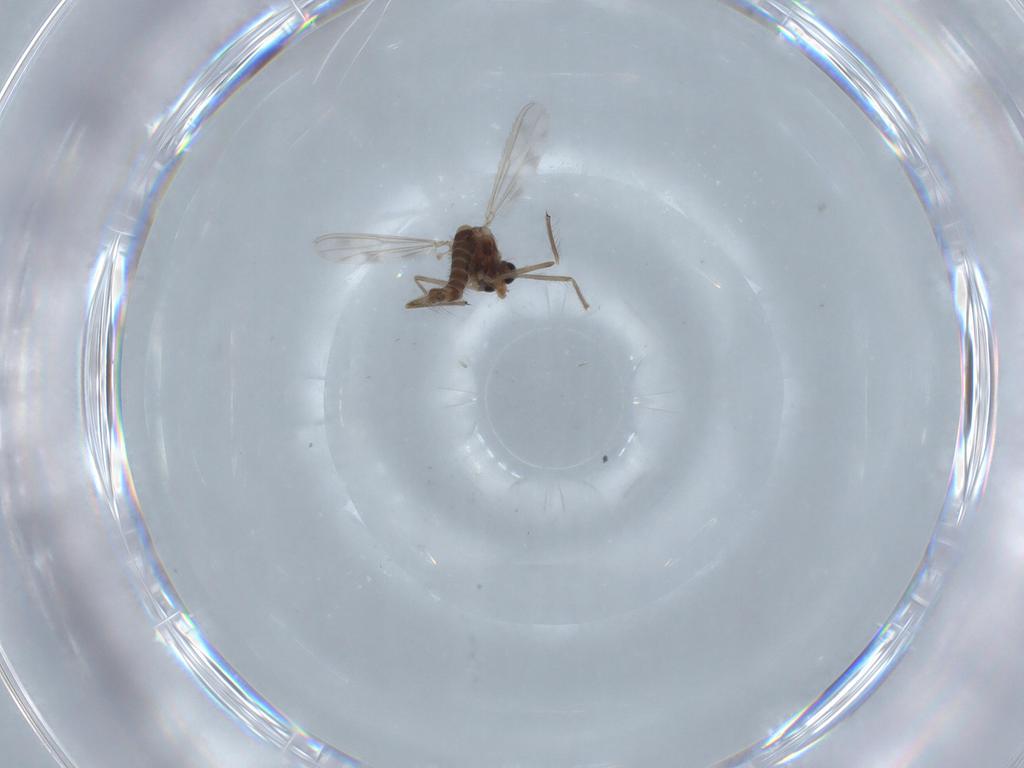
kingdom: Animalia
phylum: Arthropoda
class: Insecta
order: Diptera
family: Chironomidae
